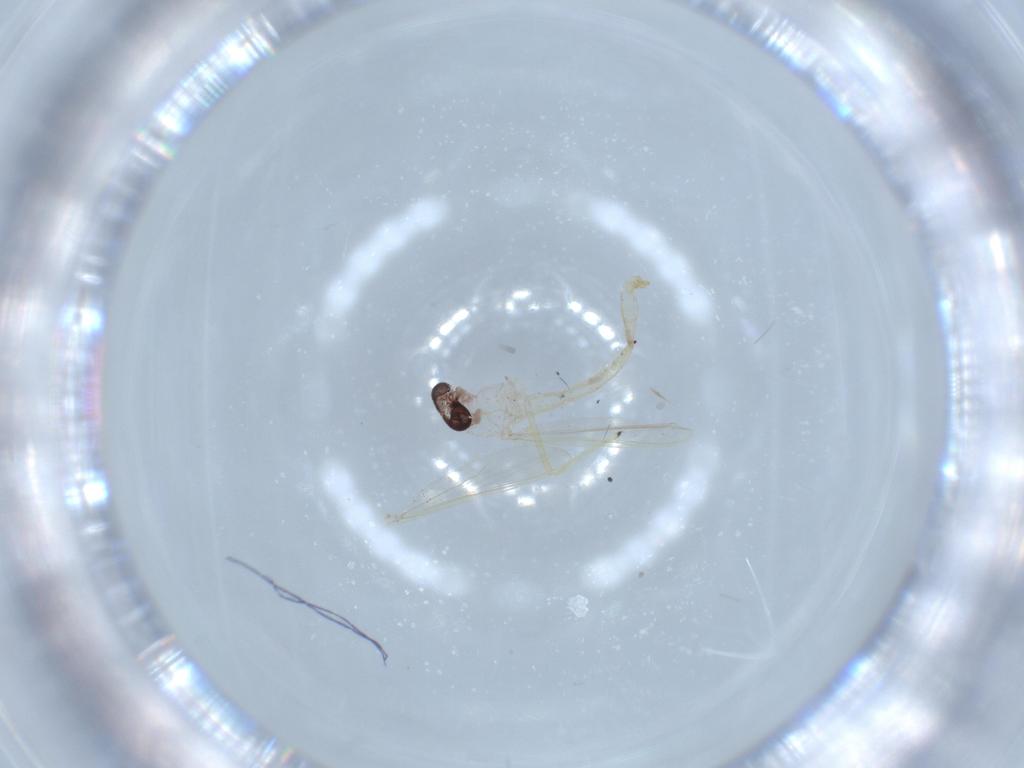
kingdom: Animalia
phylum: Arthropoda
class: Insecta
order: Diptera
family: Chironomidae
